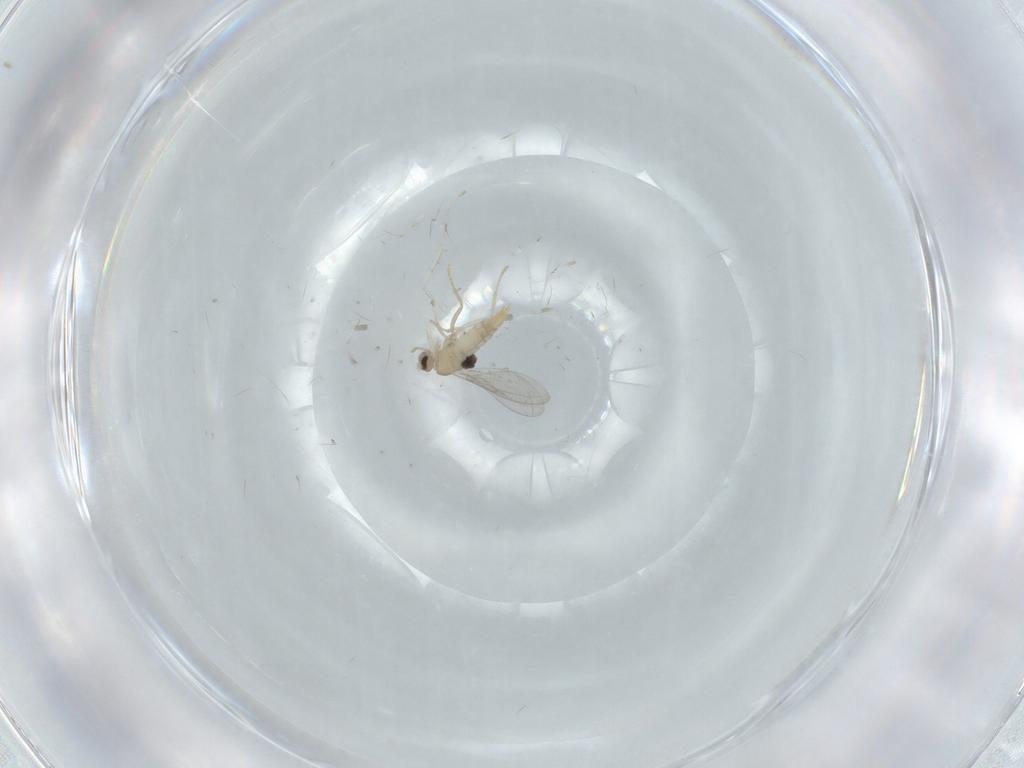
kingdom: Animalia
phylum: Arthropoda
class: Insecta
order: Diptera
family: Cecidomyiidae
